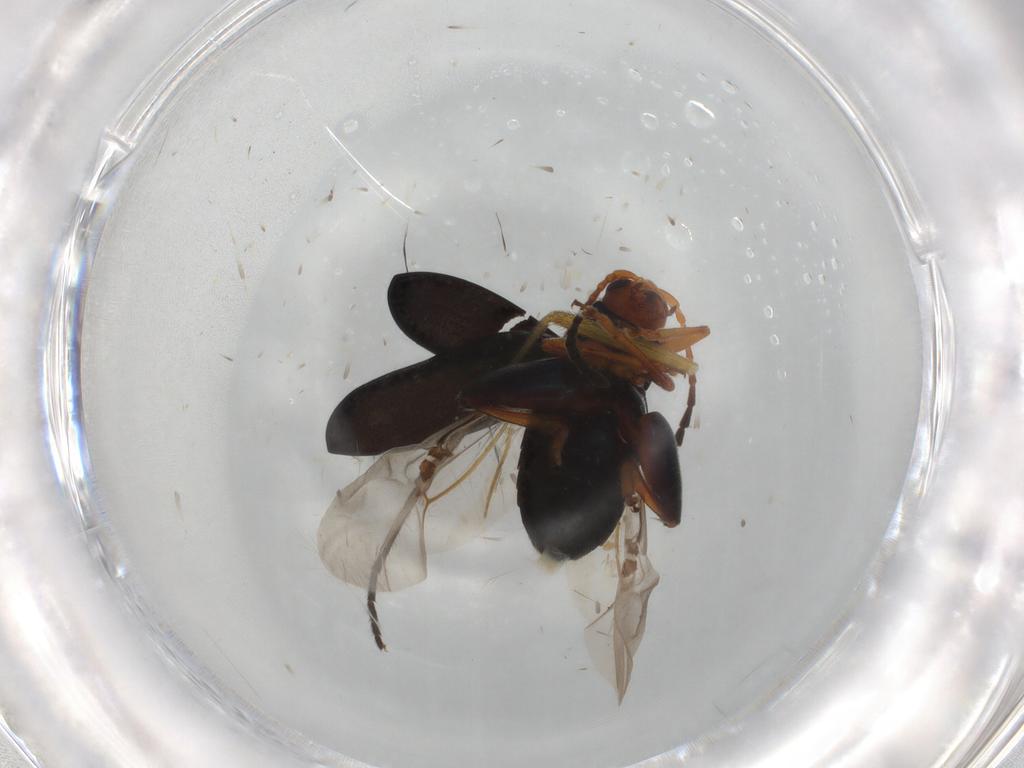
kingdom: Animalia
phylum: Arthropoda
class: Insecta
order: Coleoptera
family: Chrysomelidae
